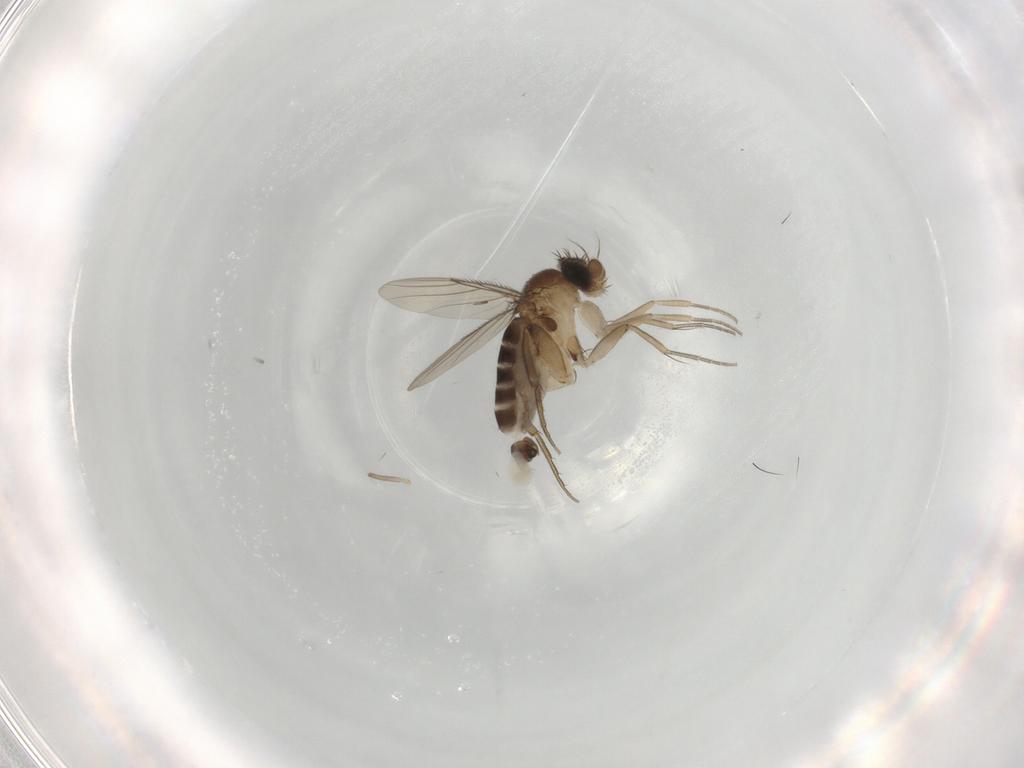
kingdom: Animalia
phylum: Arthropoda
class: Insecta
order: Diptera
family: Phoridae
